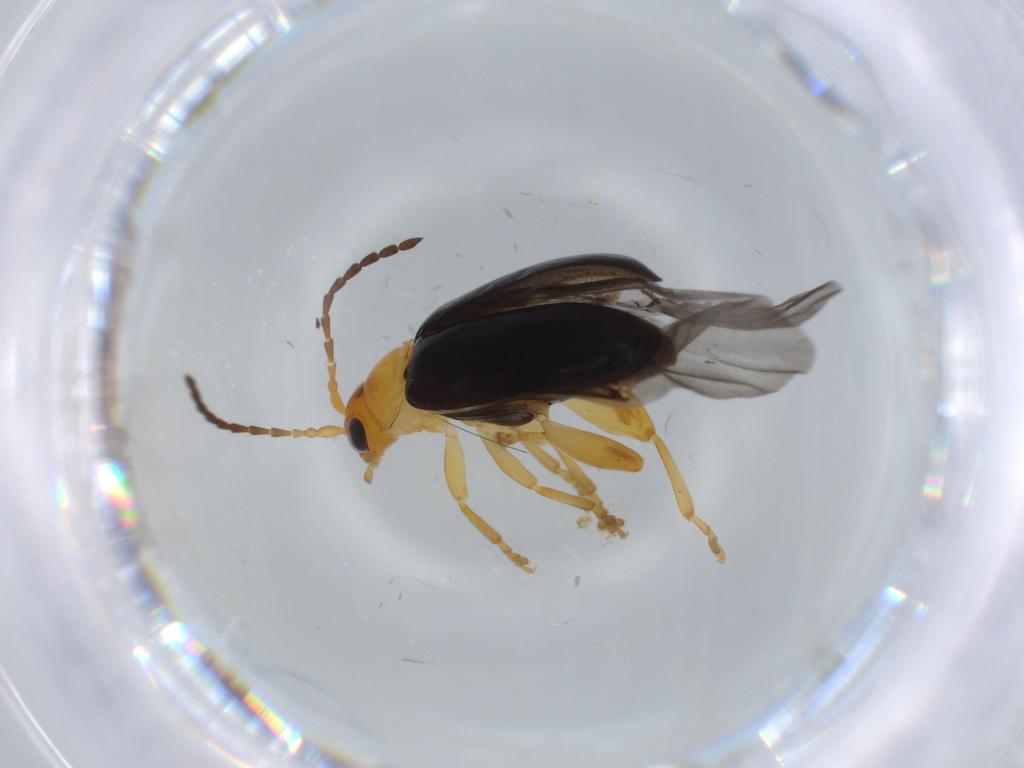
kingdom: Animalia
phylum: Arthropoda
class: Insecta
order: Coleoptera
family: Chrysomelidae
